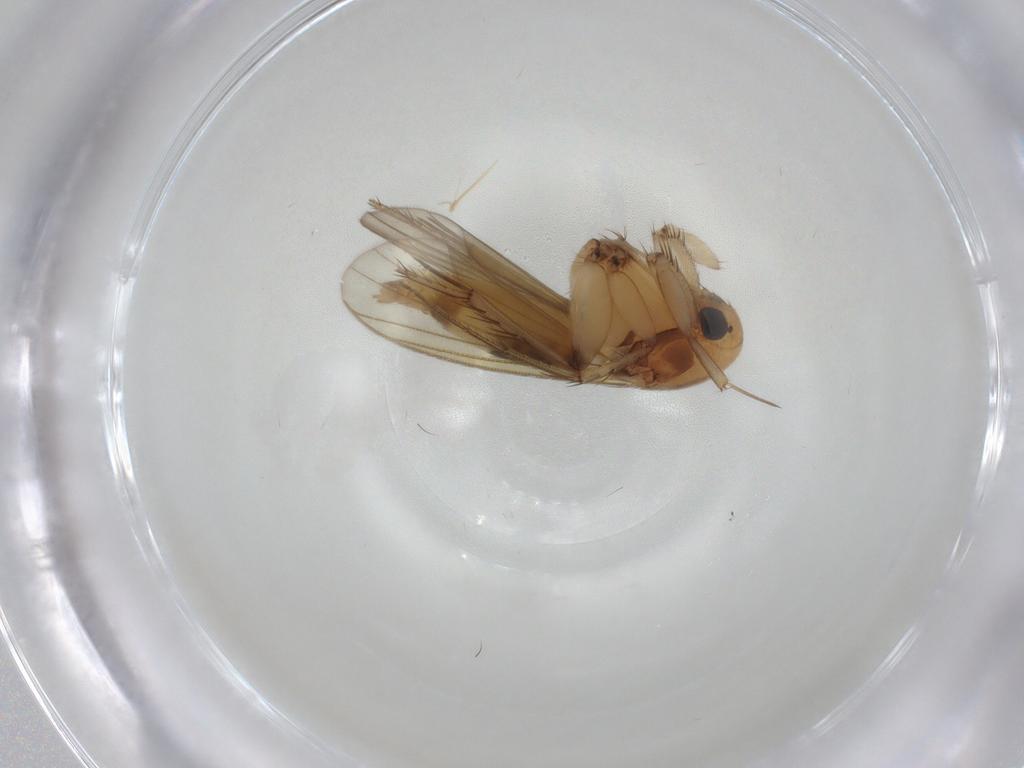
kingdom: Animalia
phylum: Arthropoda
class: Insecta
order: Diptera
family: Mycetophilidae
